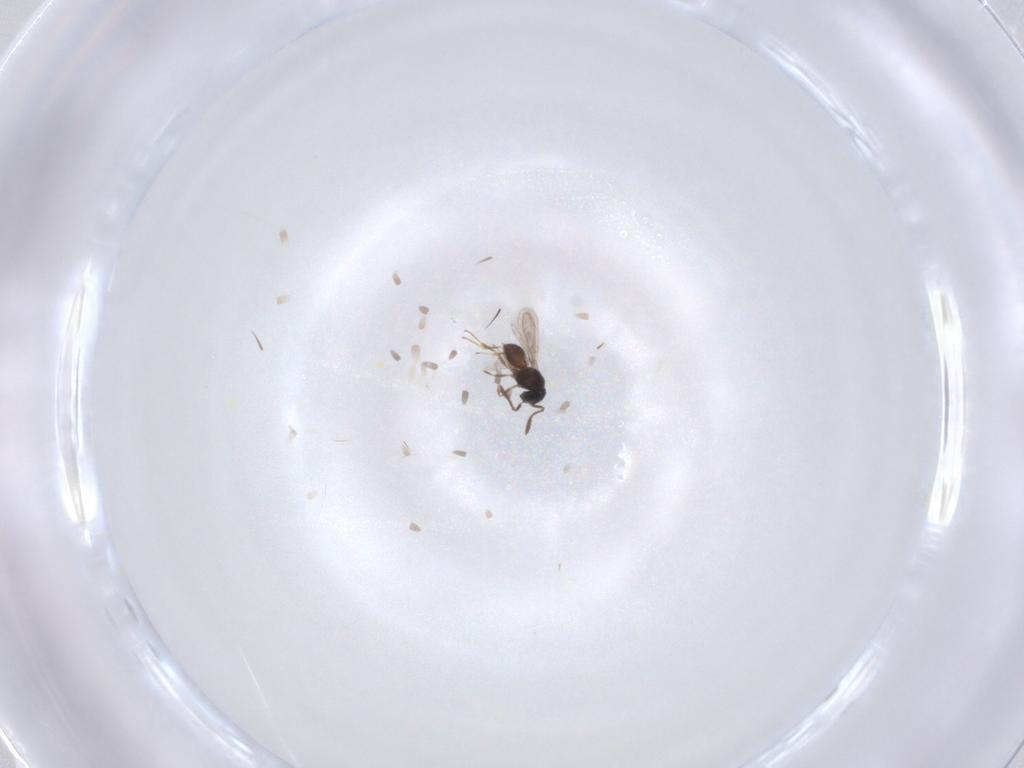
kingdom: Animalia
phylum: Arthropoda
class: Insecta
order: Hymenoptera
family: Scelionidae
